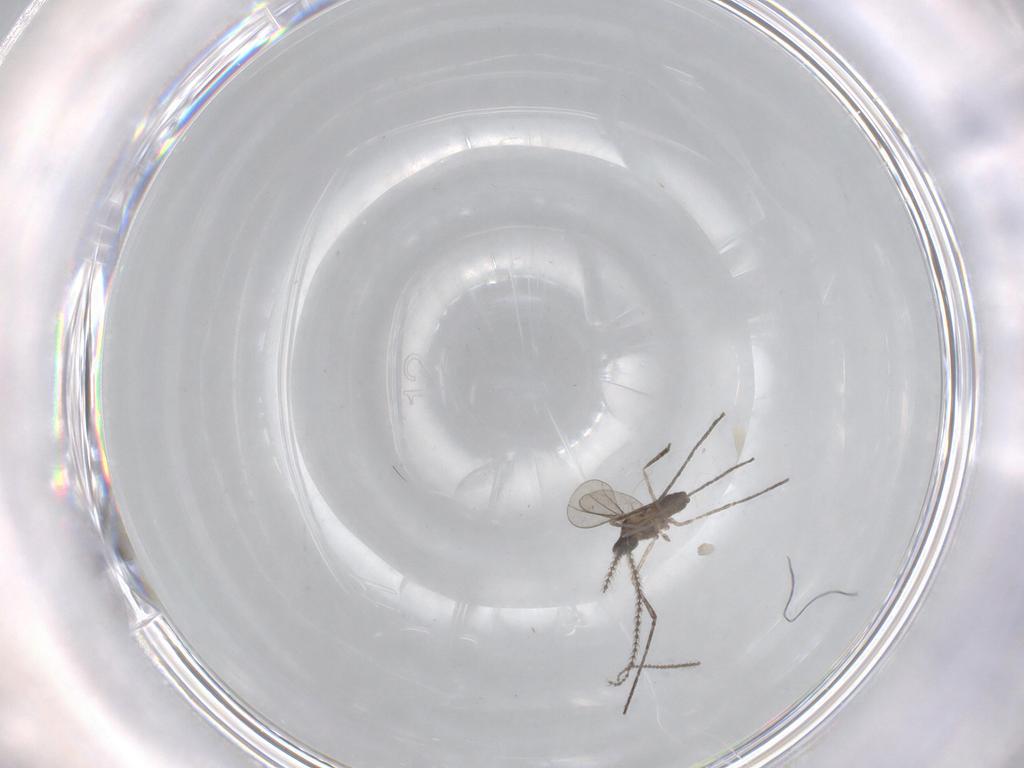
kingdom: Animalia
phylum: Arthropoda
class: Insecta
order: Diptera
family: Cecidomyiidae
